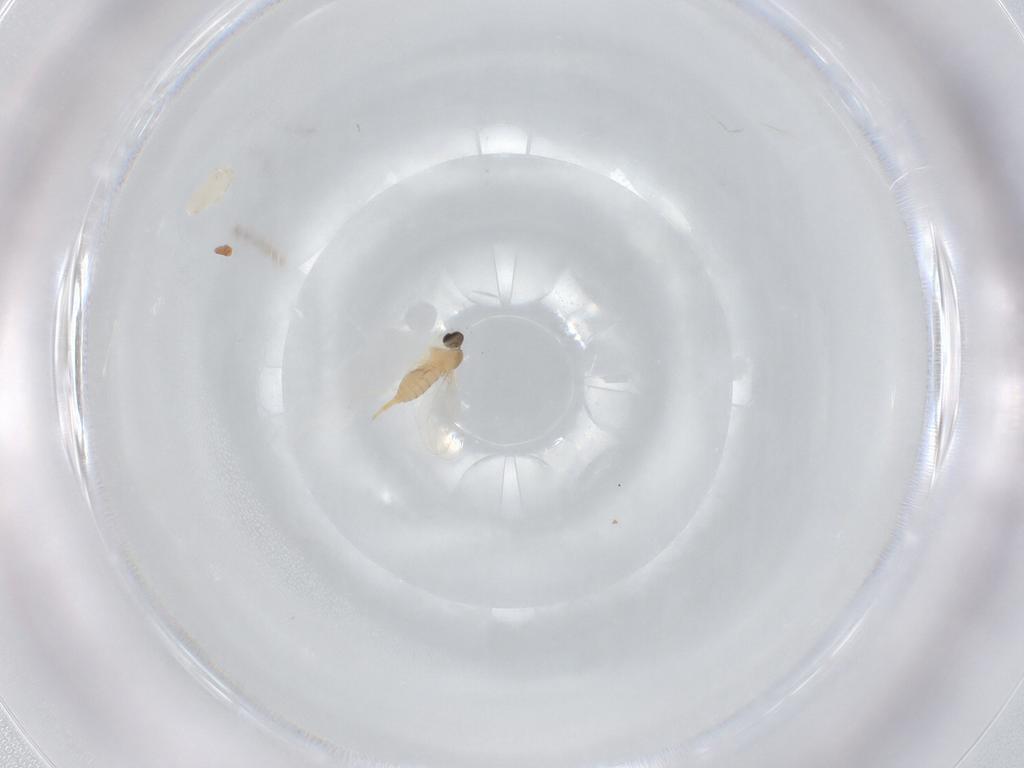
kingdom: Animalia
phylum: Arthropoda
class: Insecta
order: Diptera
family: Cecidomyiidae
